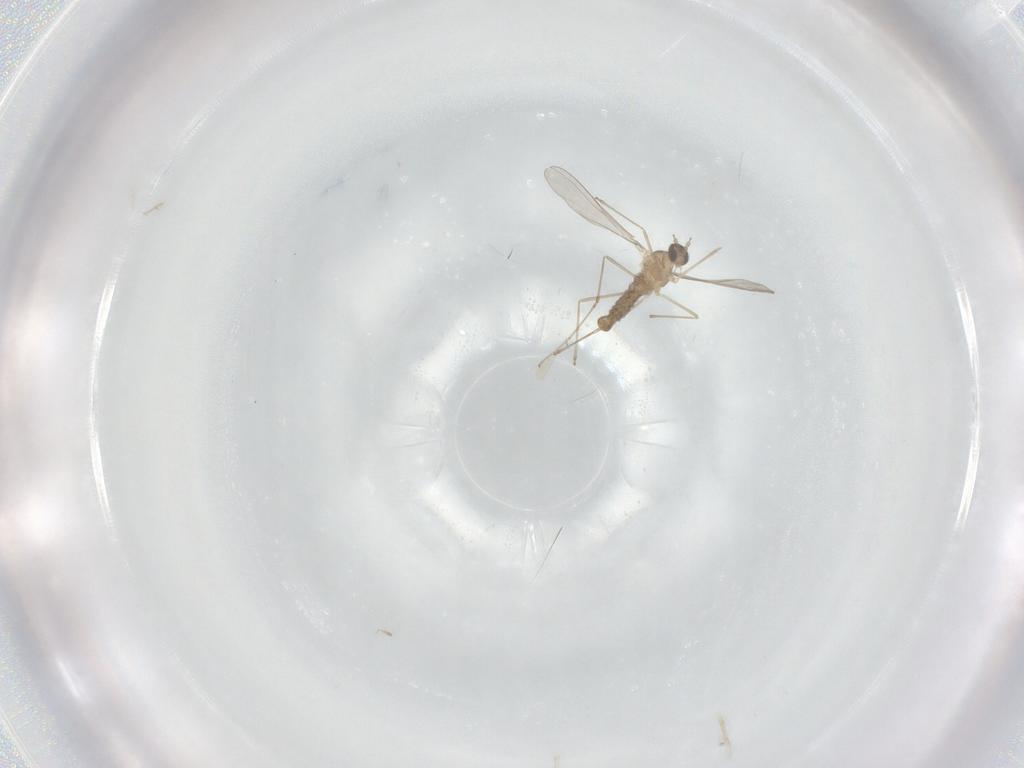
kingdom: Animalia
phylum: Arthropoda
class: Insecta
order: Diptera
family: Cecidomyiidae
